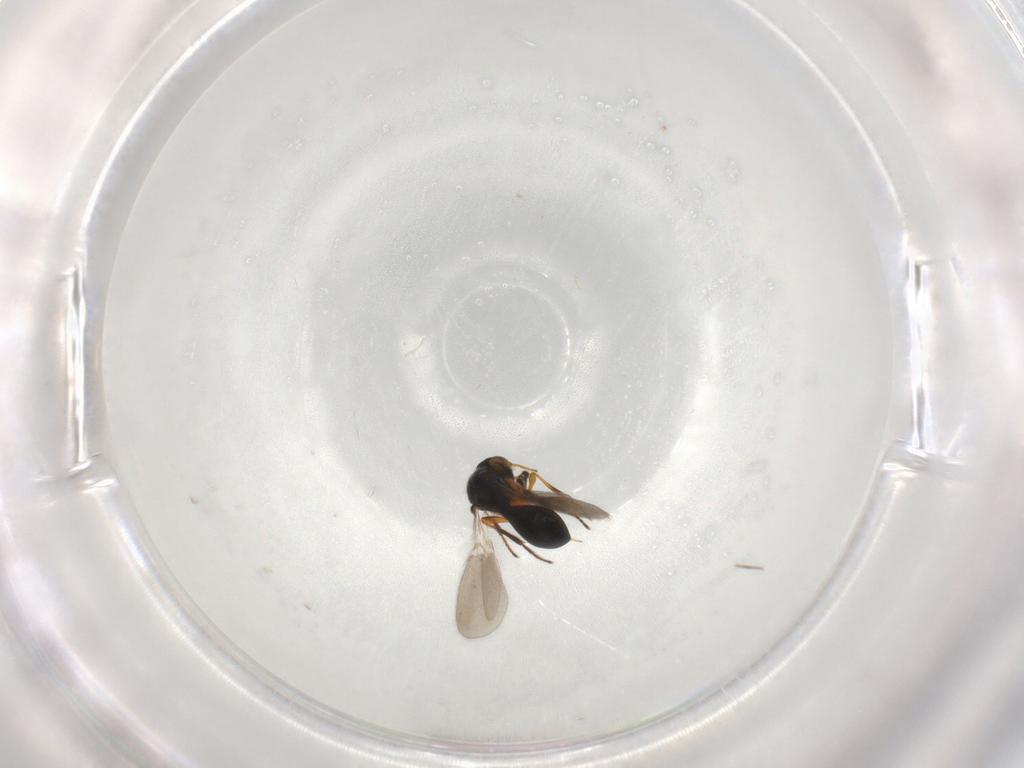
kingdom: Animalia
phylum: Arthropoda
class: Insecta
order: Hymenoptera
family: Platygastridae
